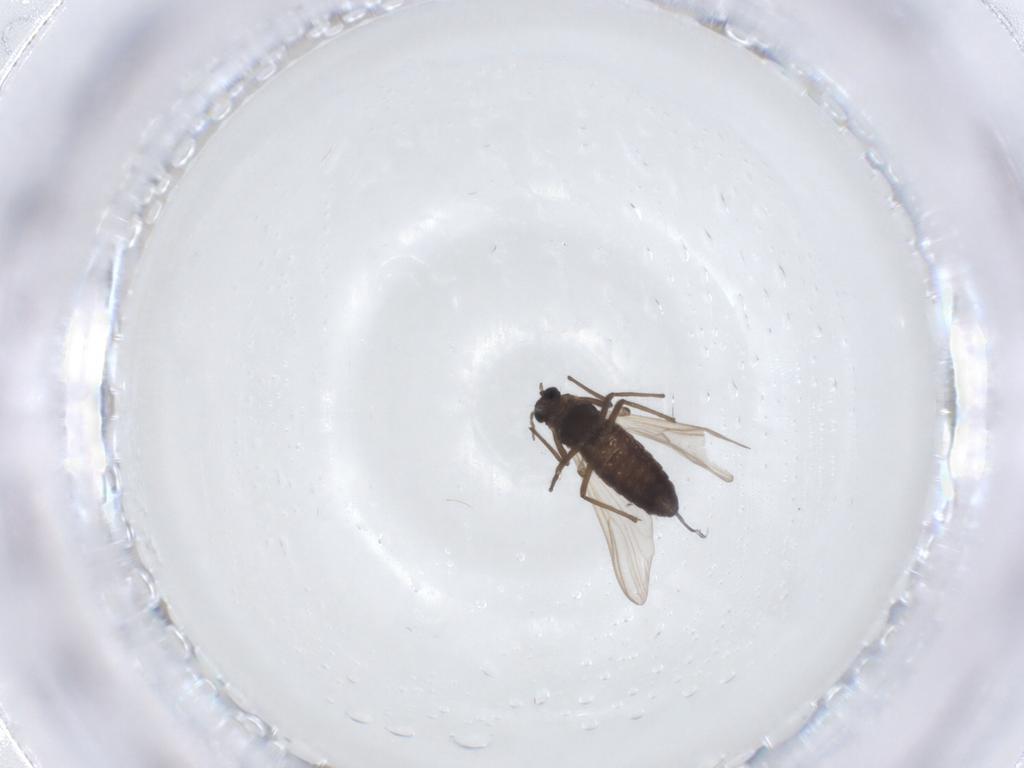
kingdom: Animalia
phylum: Arthropoda
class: Insecta
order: Diptera
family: Chironomidae
